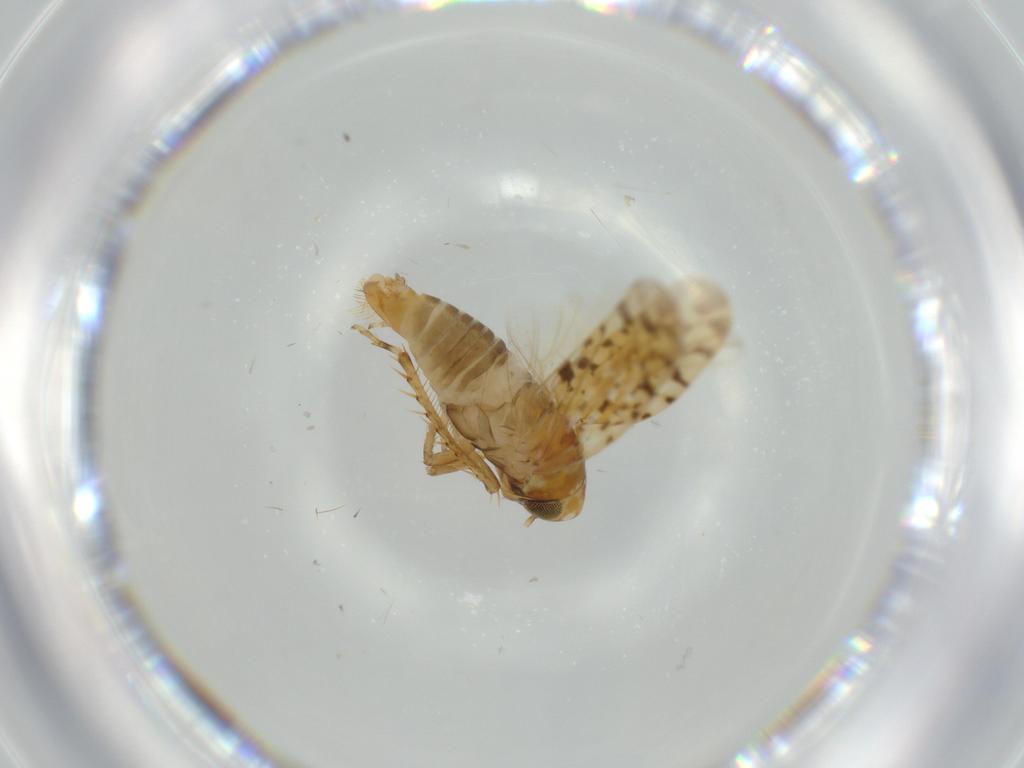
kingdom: Animalia
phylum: Arthropoda
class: Insecta
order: Hemiptera
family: Cicadellidae
